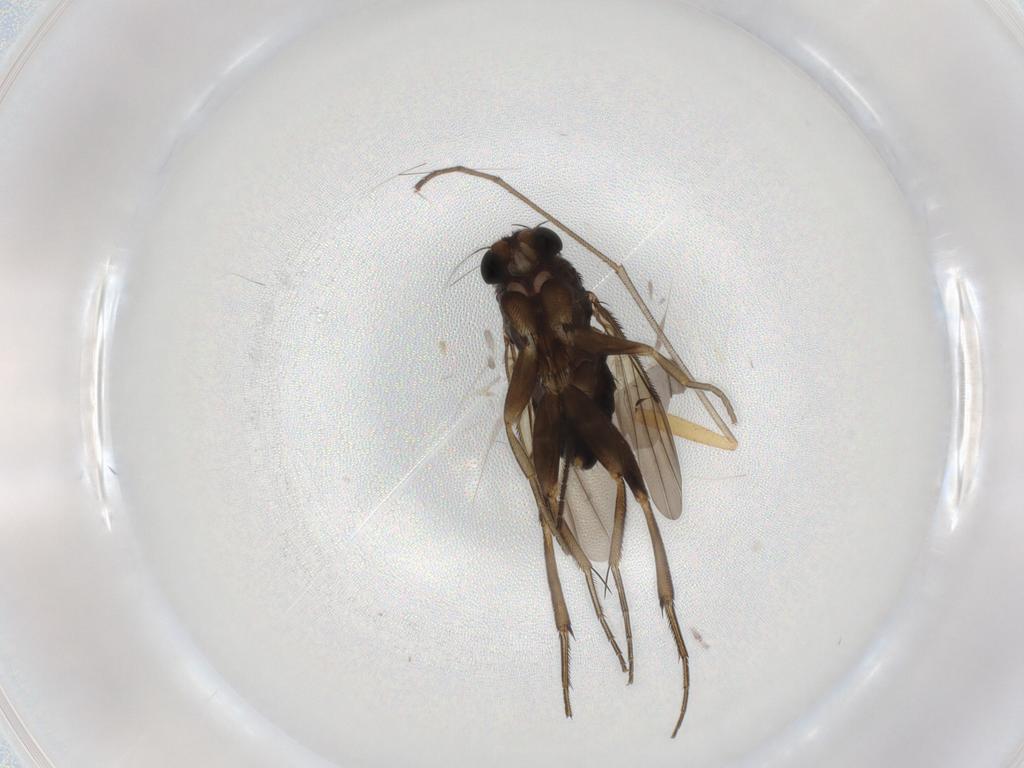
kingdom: Animalia
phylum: Arthropoda
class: Insecta
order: Diptera
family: Phoridae
